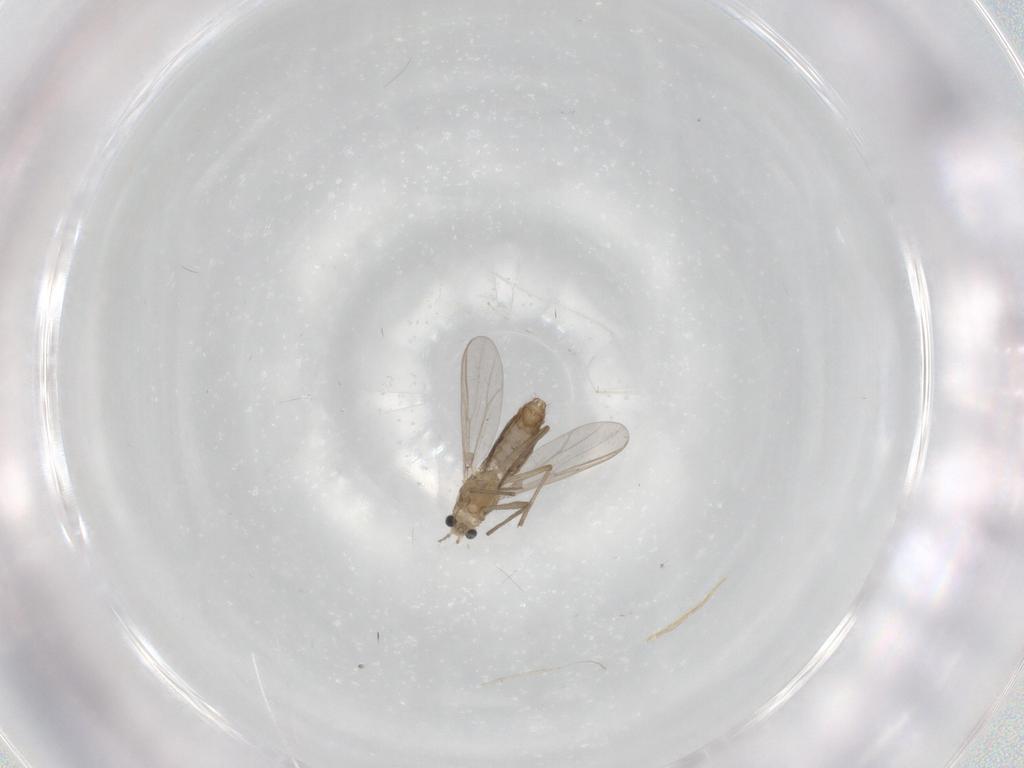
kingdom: Animalia
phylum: Arthropoda
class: Insecta
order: Diptera
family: Chironomidae
